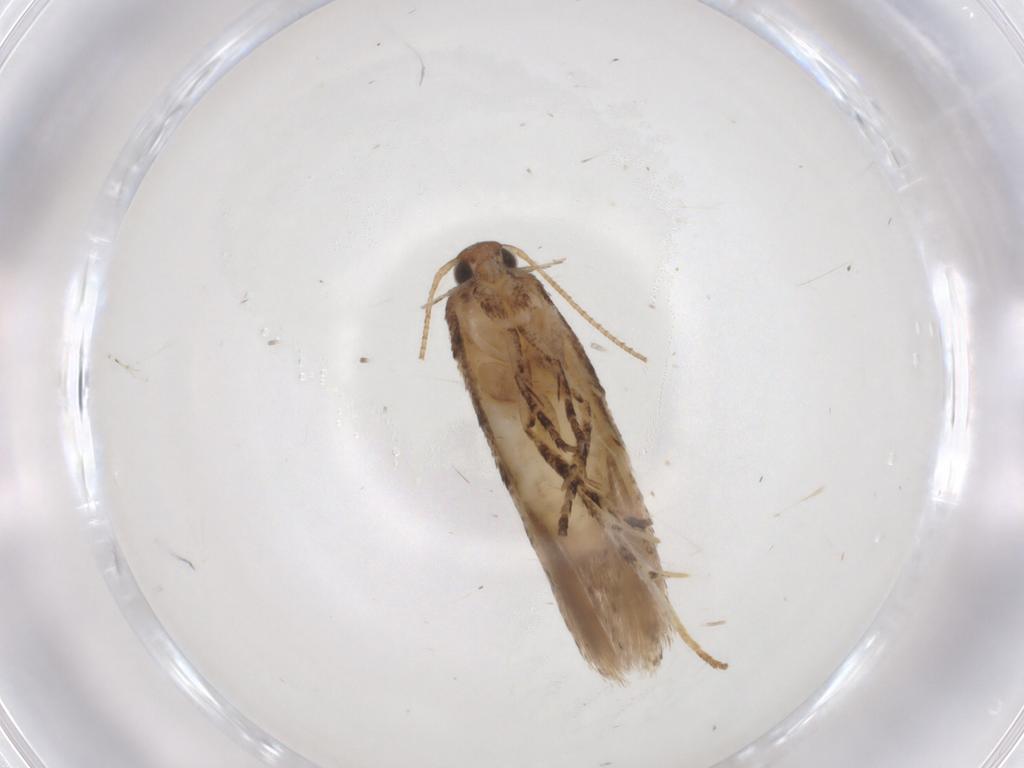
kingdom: Animalia
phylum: Arthropoda
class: Insecta
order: Lepidoptera
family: Gelechiidae
